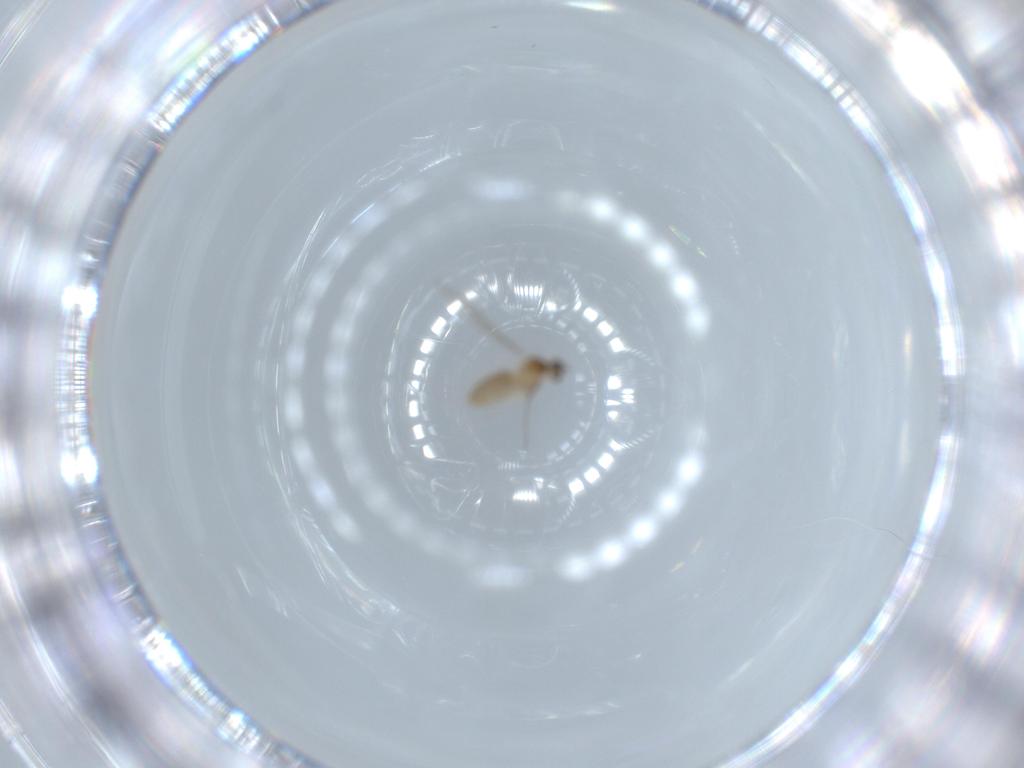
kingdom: Animalia
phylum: Arthropoda
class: Insecta
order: Diptera
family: Cecidomyiidae
